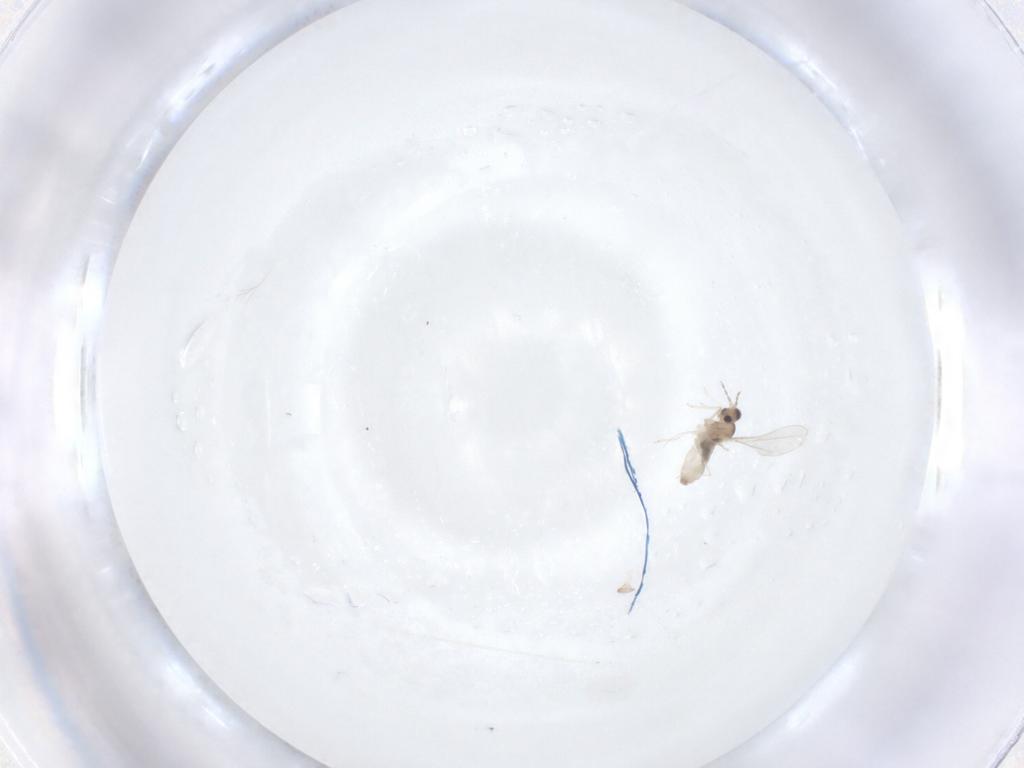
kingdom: Animalia
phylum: Arthropoda
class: Insecta
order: Diptera
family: Cecidomyiidae
